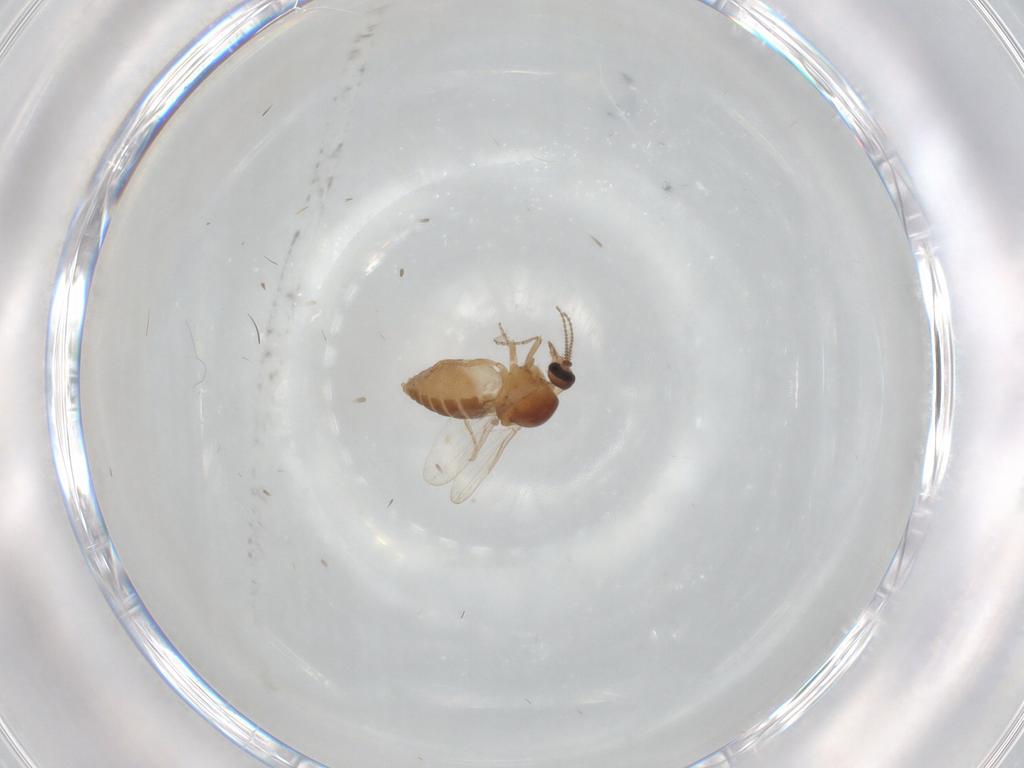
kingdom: Animalia
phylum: Arthropoda
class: Insecta
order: Diptera
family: Ceratopogonidae
